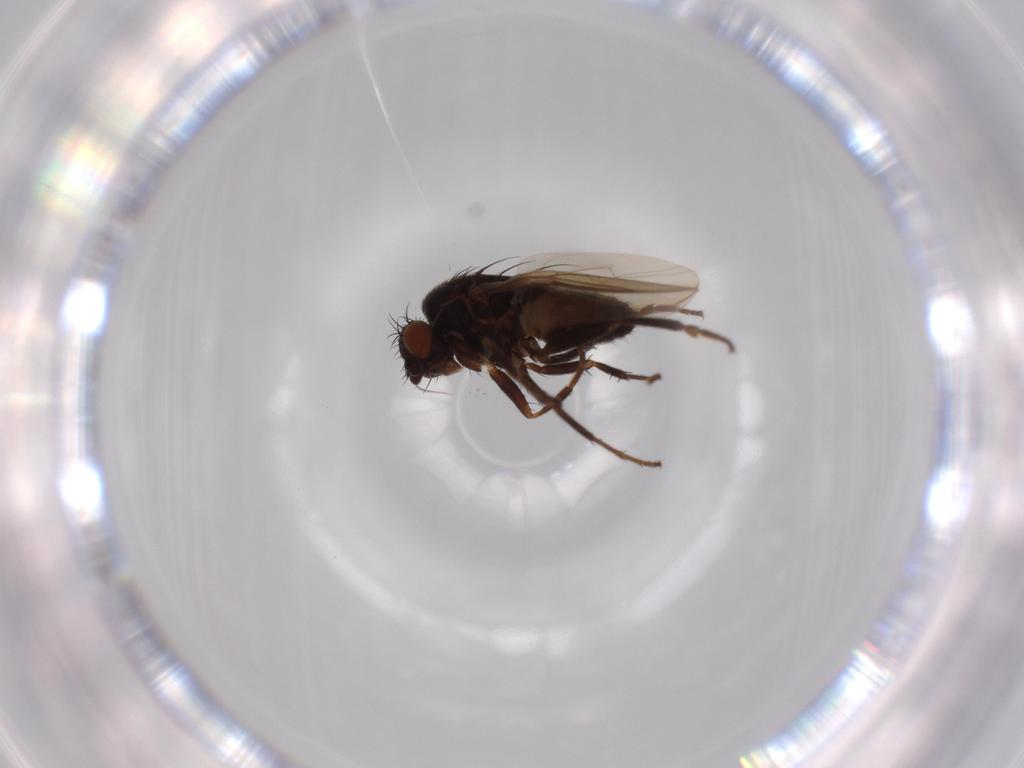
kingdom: Animalia
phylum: Arthropoda
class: Insecta
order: Diptera
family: Sphaeroceridae
